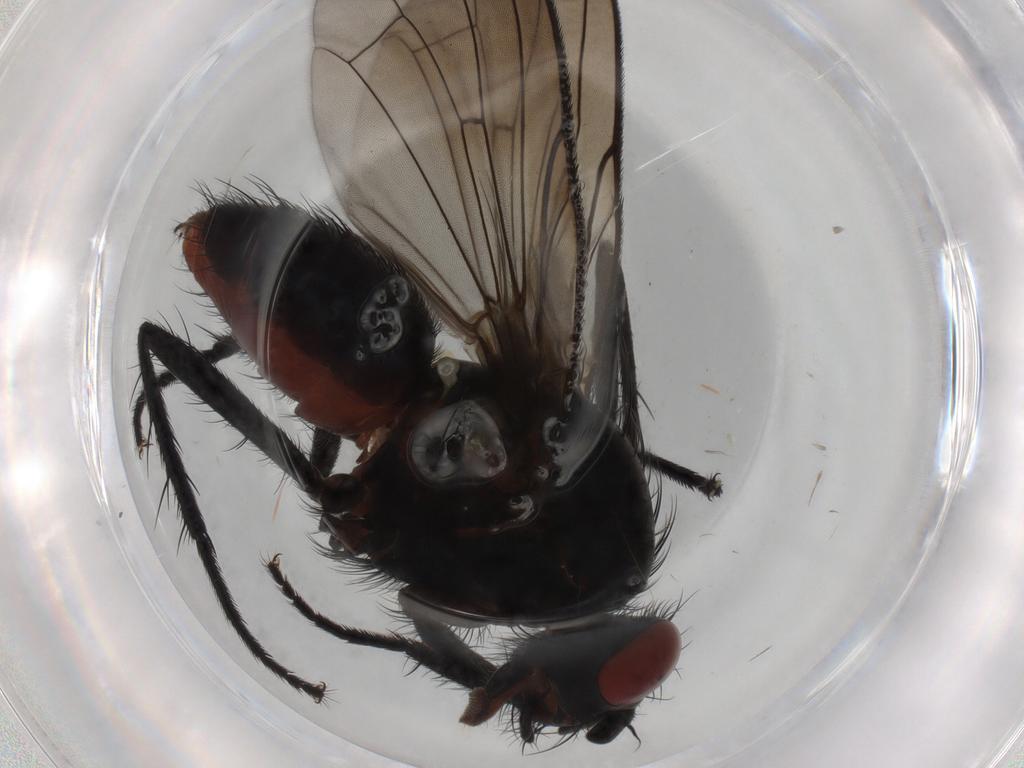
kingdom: Animalia
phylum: Arthropoda
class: Insecta
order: Diptera
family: Anthomyiidae
